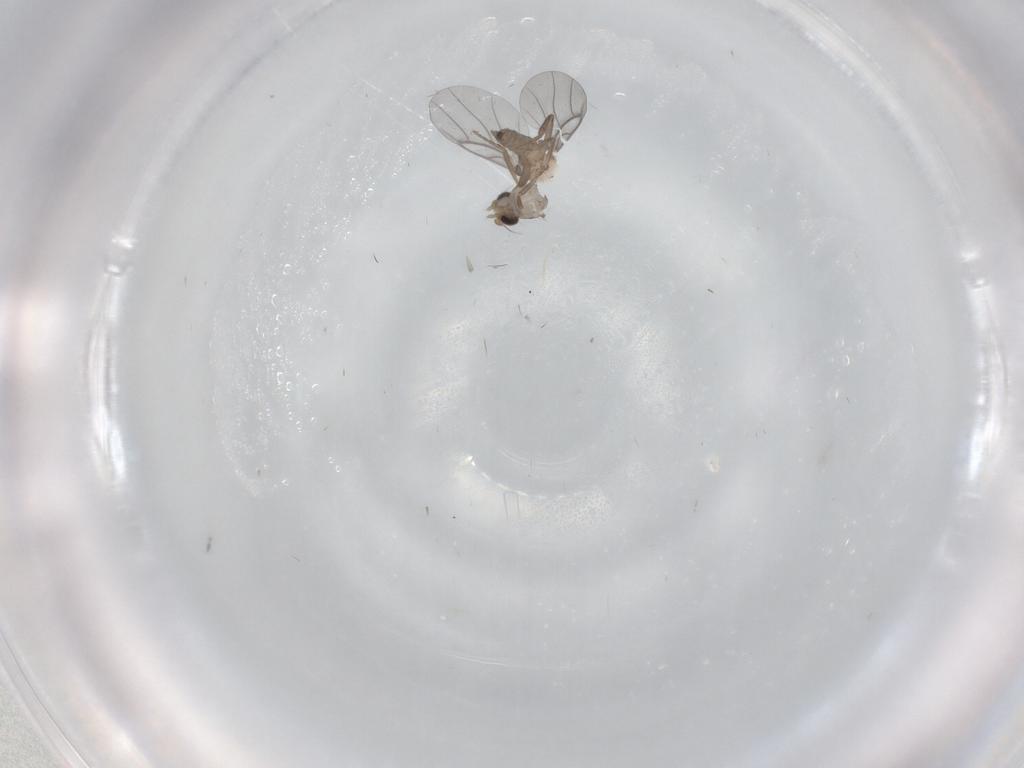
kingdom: Animalia
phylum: Arthropoda
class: Insecta
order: Diptera
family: Cecidomyiidae
